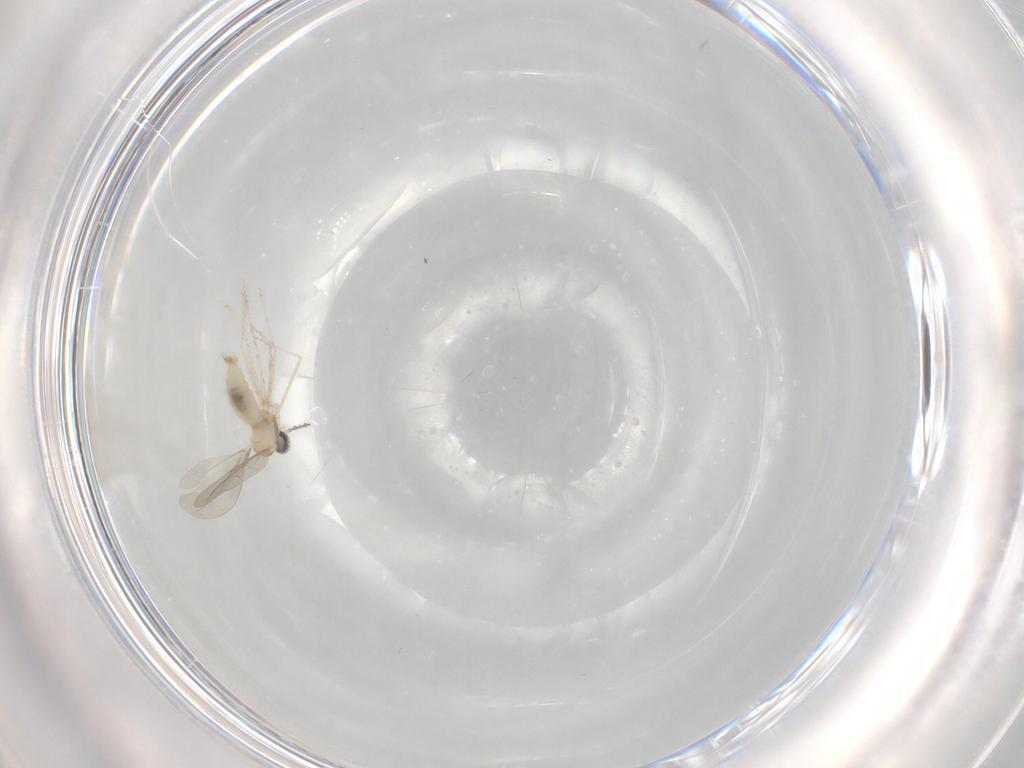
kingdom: Animalia
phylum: Arthropoda
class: Insecta
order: Diptera
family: Cecidomyiidae
